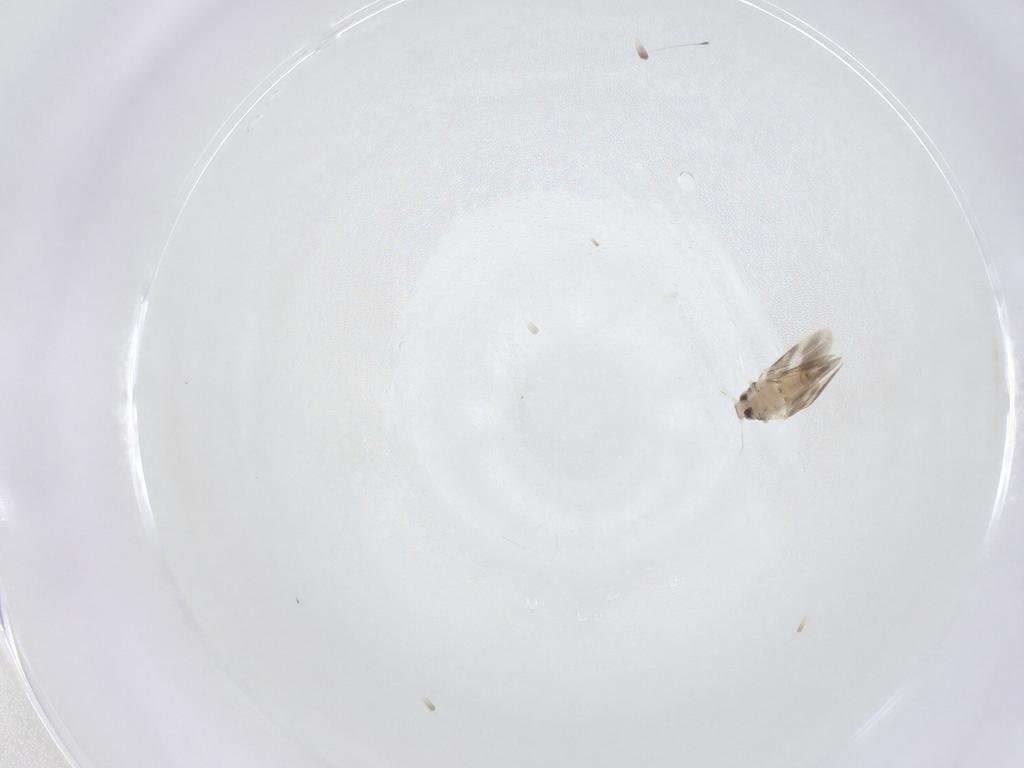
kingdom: Animalia
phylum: Arthropoda
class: Insecta
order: Hemiptera
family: Aleyrodidae
